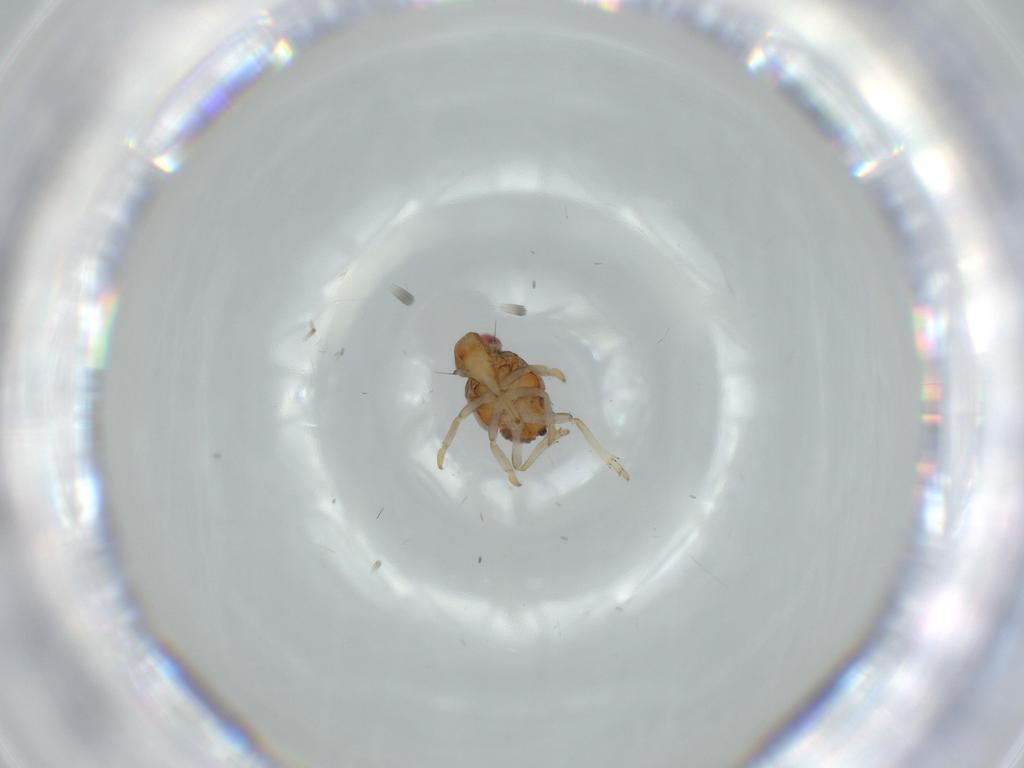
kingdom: Animalia
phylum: Arthropoda
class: Insecta
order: Hemiptera
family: Issidae
